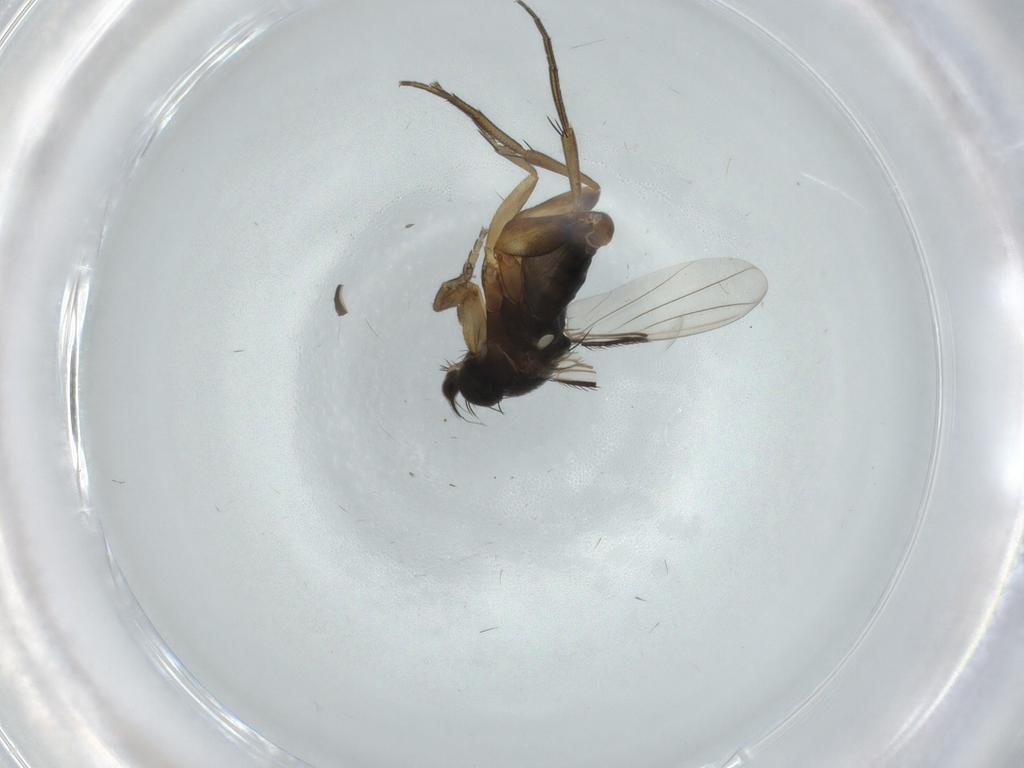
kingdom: Animalia
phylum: Arthropoda
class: Insecta
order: Diptera
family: Phoridae
